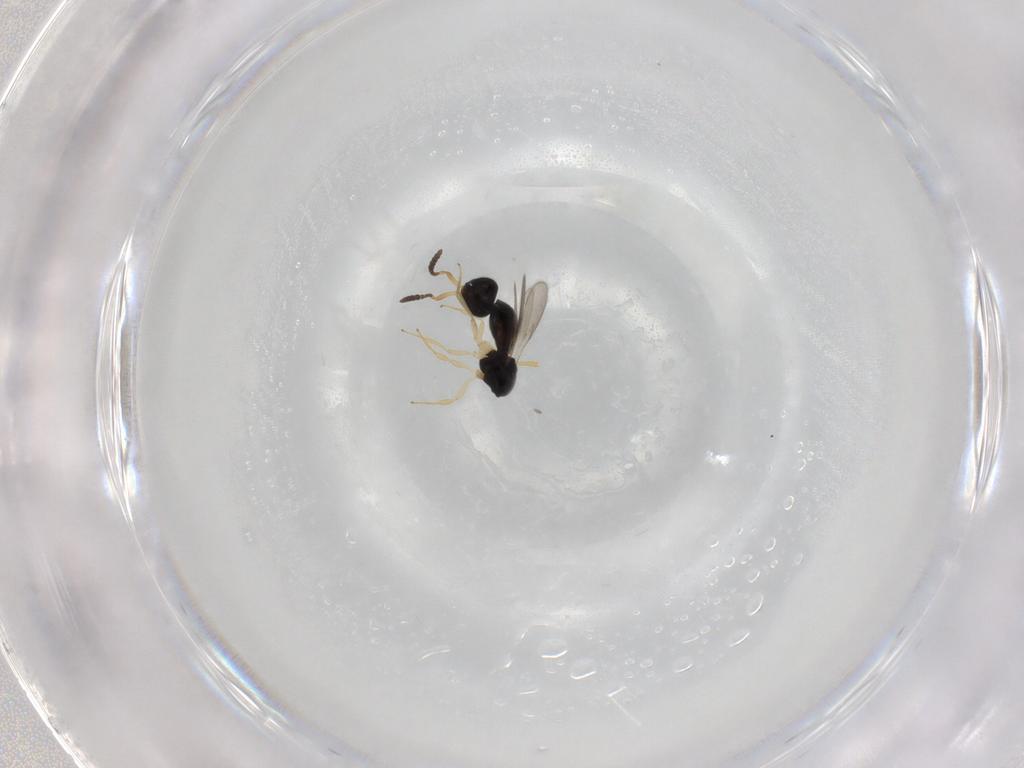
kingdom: Animalia
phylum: Arthropoda
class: Insecta
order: Hymenoptera
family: Scelionidae
